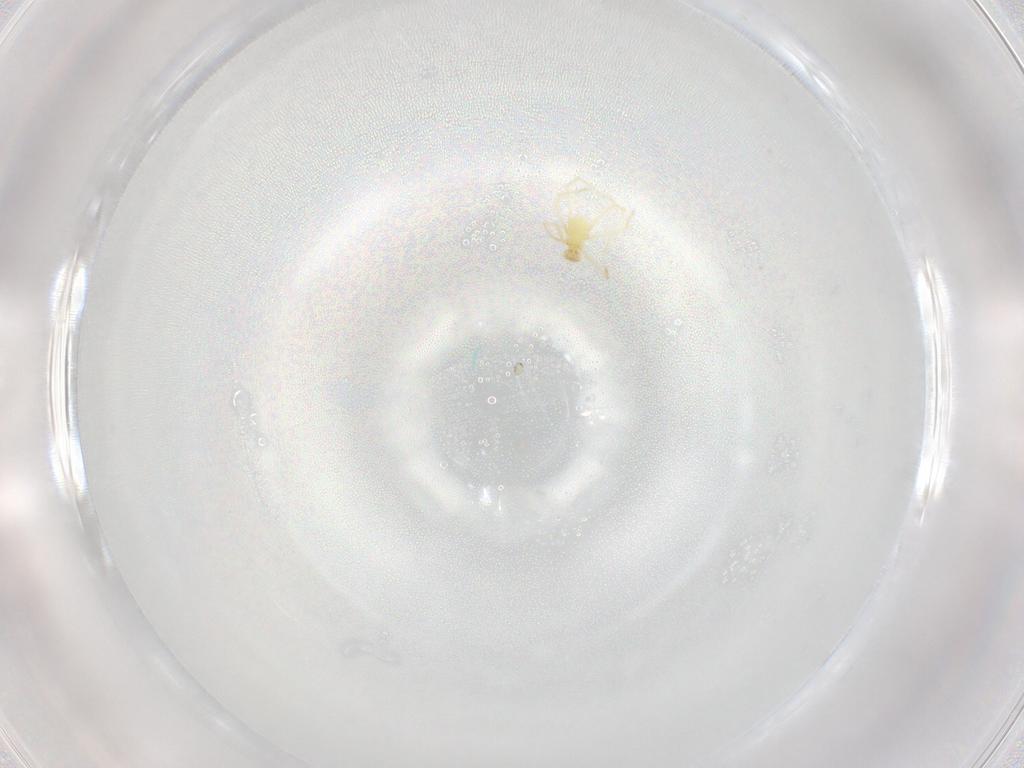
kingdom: Animalia
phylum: Arthropoda
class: Arachnida
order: Trombidiformes
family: Erythraeidae
